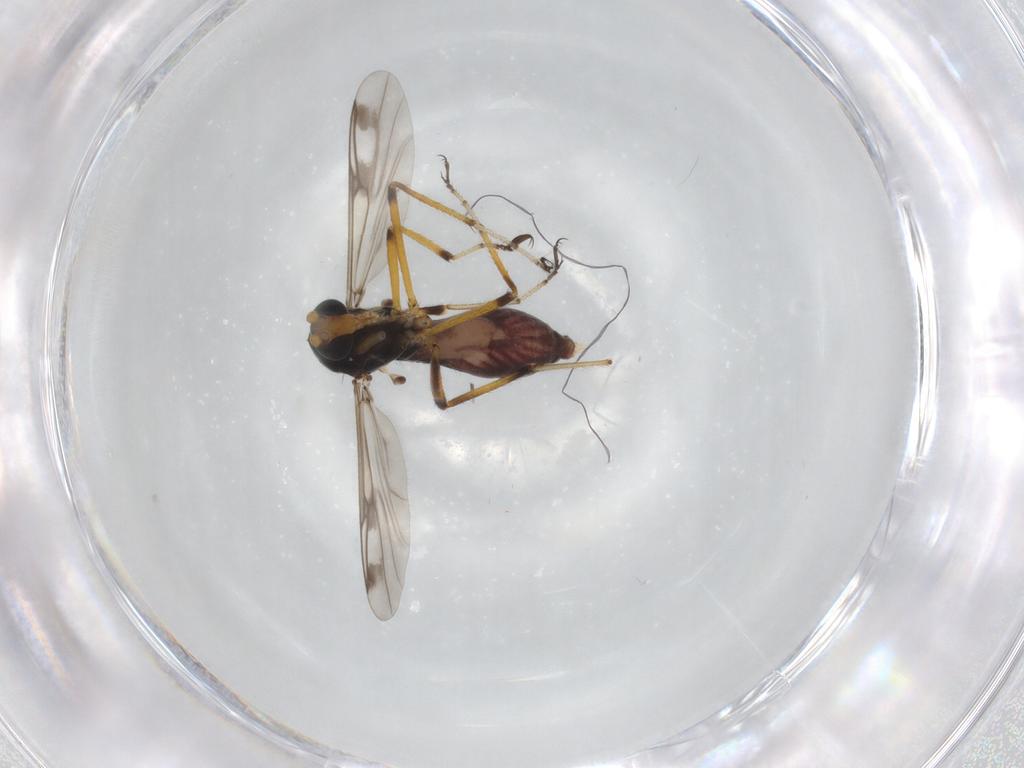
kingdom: Animalia
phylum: Arthropoda
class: Insecta
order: Diptera
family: Ceratopogonidae
